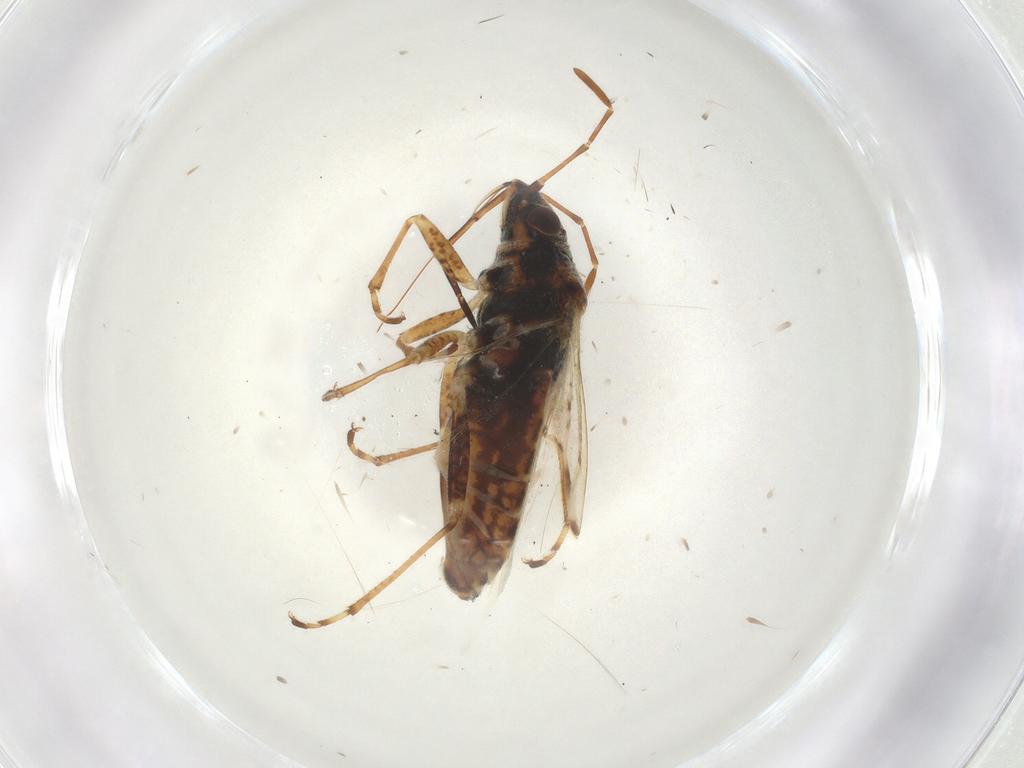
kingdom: Animalia
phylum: Arthropoda
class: Insecta
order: Hemiptera
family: Lygaeidae
